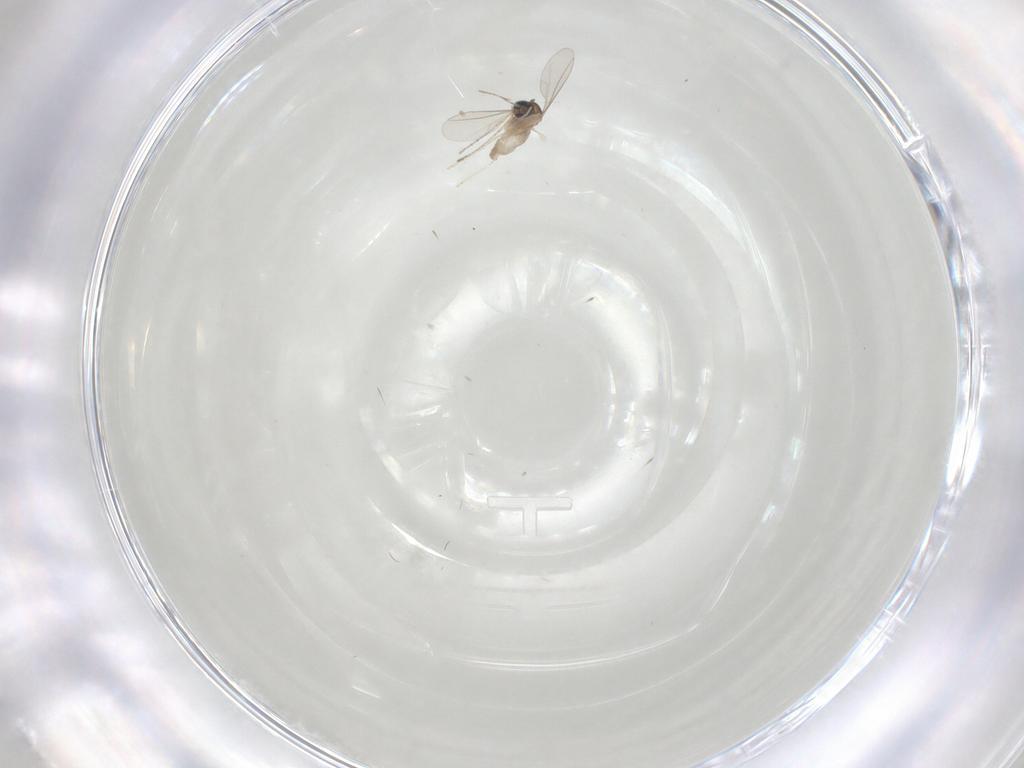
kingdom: Animalia
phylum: Arthropoda
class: Insecta
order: Diptera
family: Cecidomyiidae
